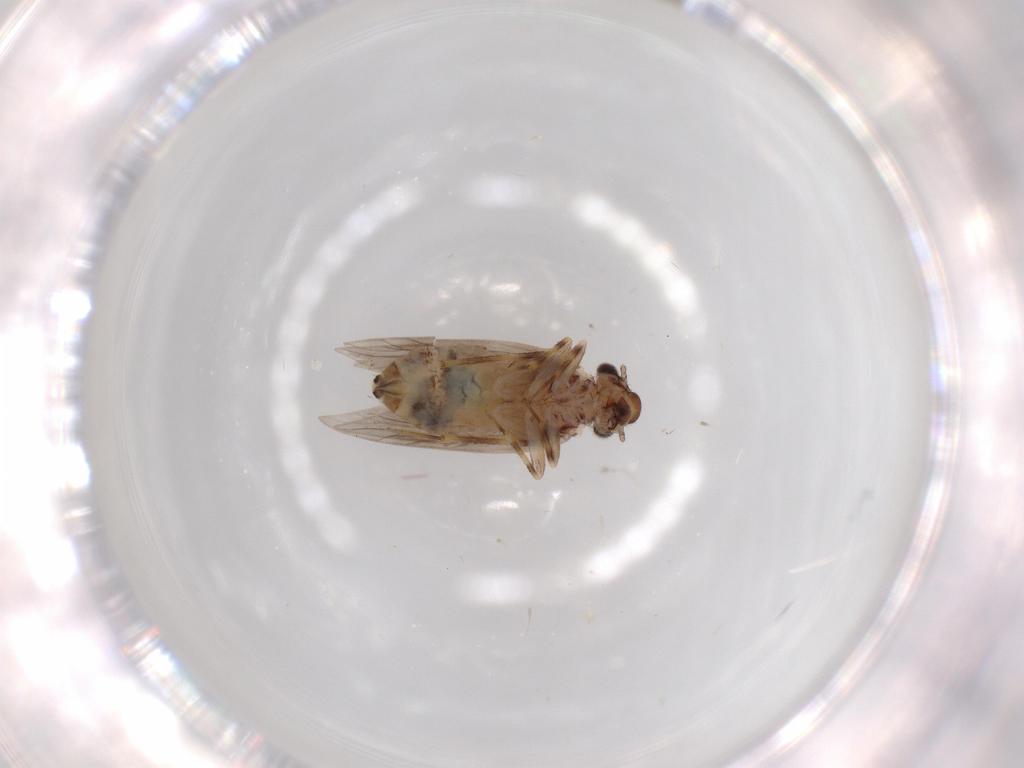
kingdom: Animalia
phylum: Arthropoda
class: Insecta
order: Psocodea
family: Lepidopsocidae
